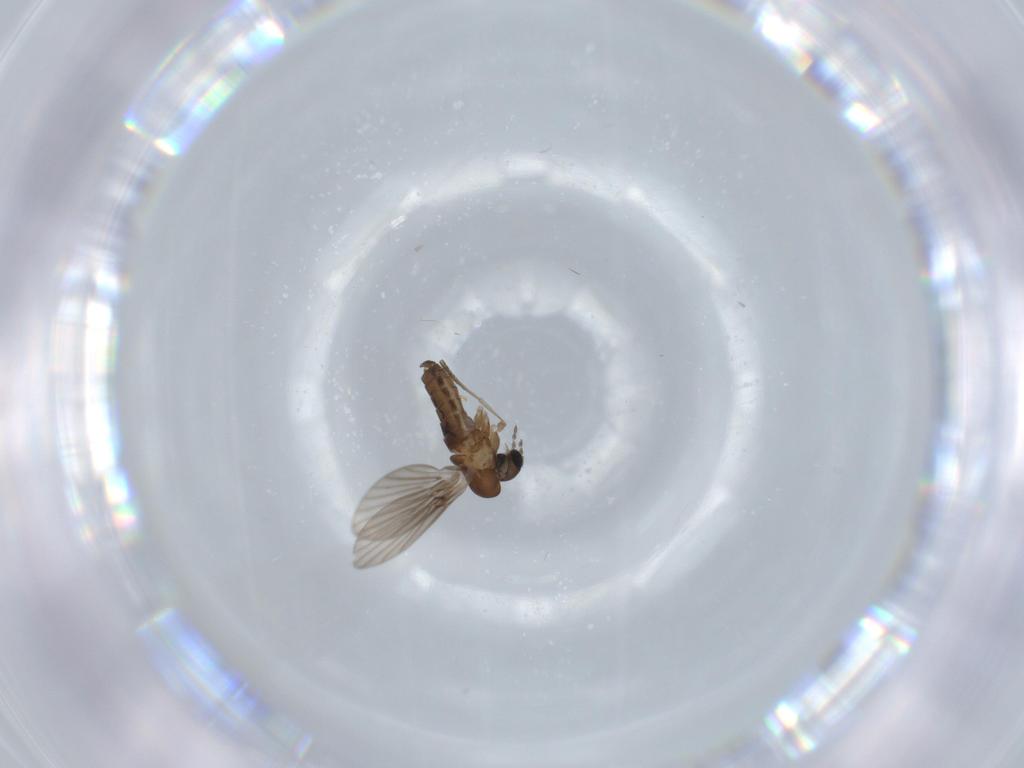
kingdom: Animalia
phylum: Arthropoda
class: Insecta
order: Diptera
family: Psychodidae
